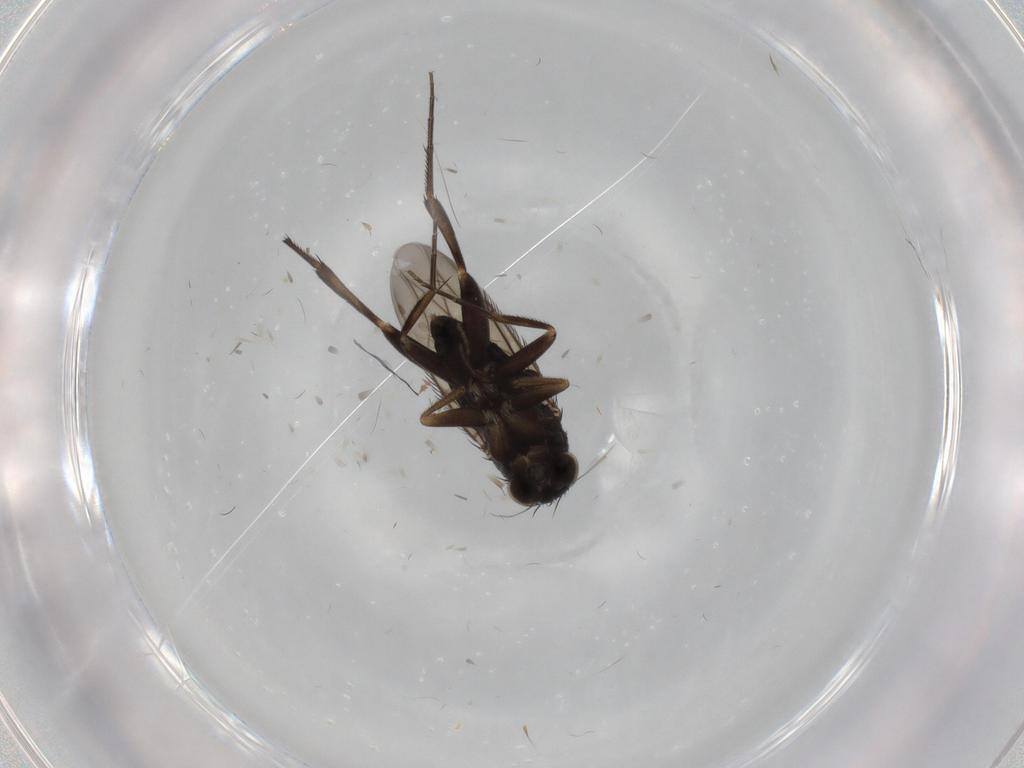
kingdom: Animalia
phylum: Arthropoda
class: Insecta
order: Diptera
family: Phoridae
